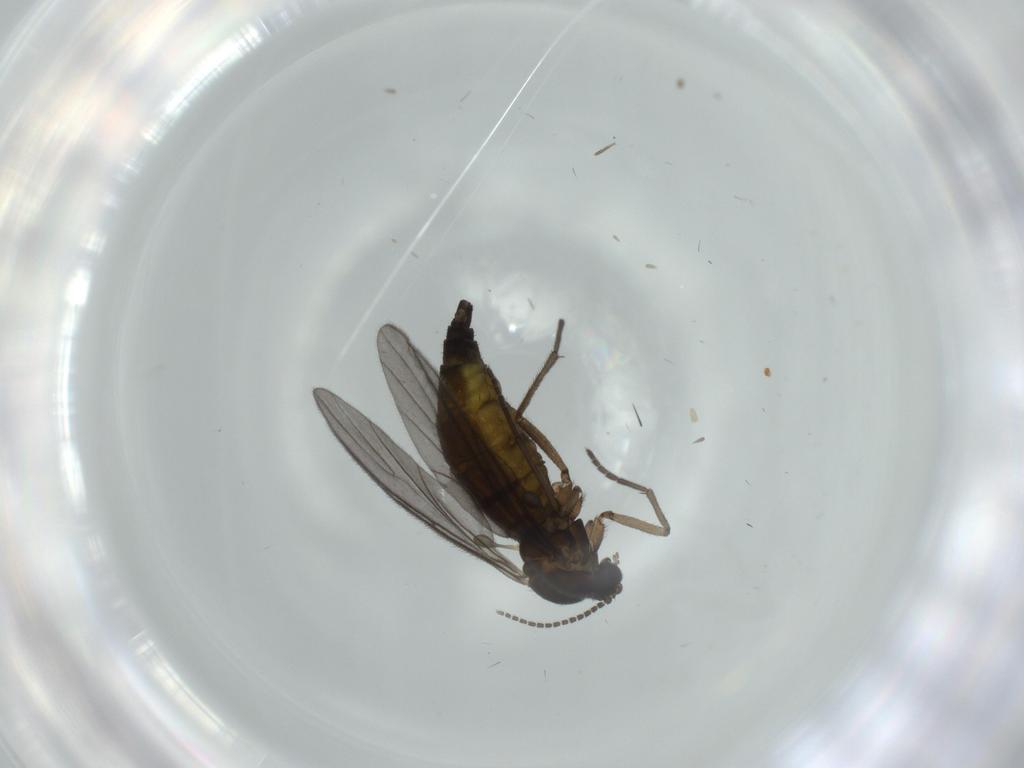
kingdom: Animalia
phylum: Arthropoda
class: Insecta
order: Diptera
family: Sciaridae
